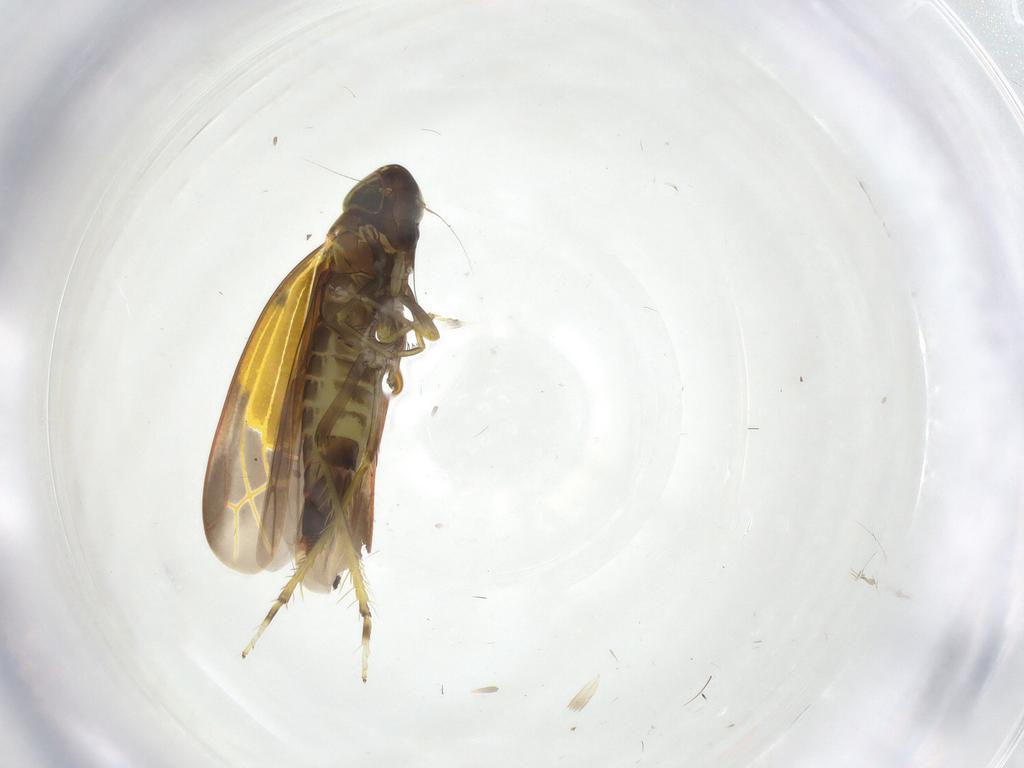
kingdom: Animalia
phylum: Arthropoda
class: Insecta
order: Hemiptera
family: Cicadellidae
